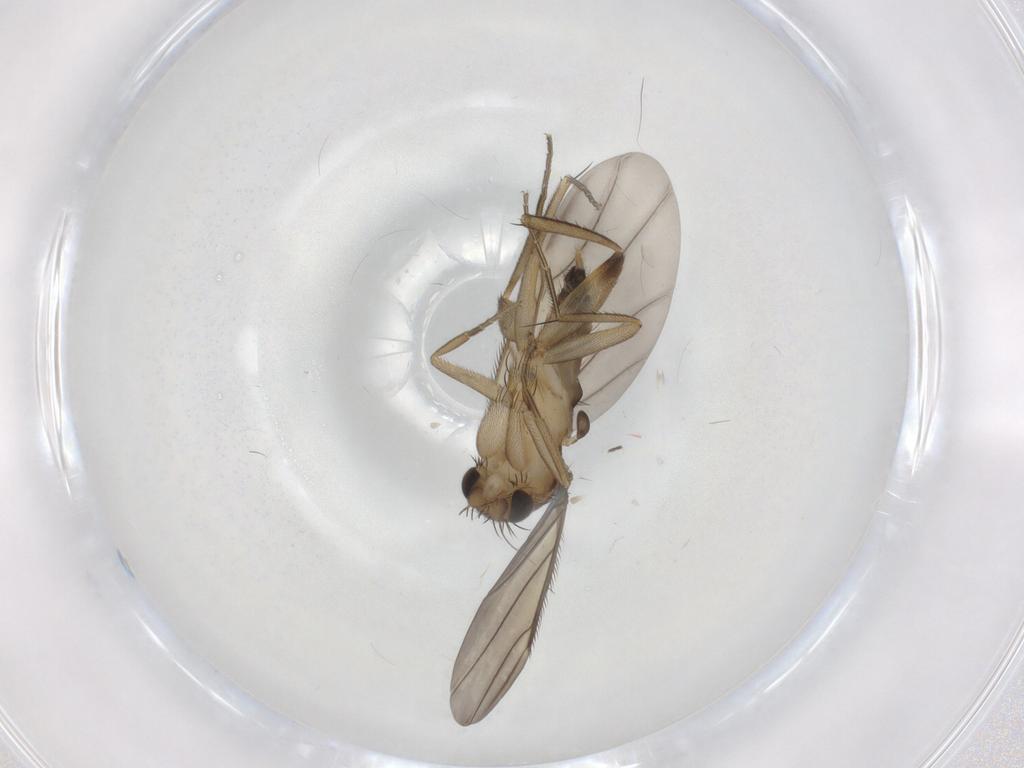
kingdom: Animalia
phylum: Arthropoda
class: Insecta
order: Diptera
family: Phoridae
